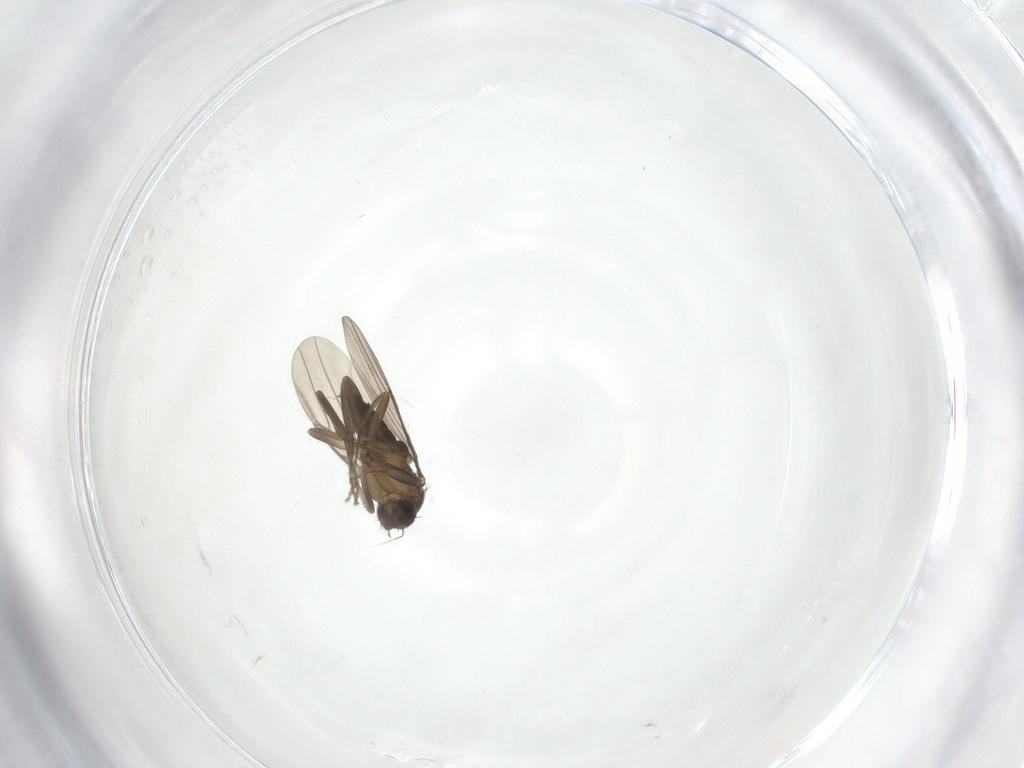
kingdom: Animalia
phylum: Arthropoda
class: Insecta
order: Diptera
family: Phoridae
